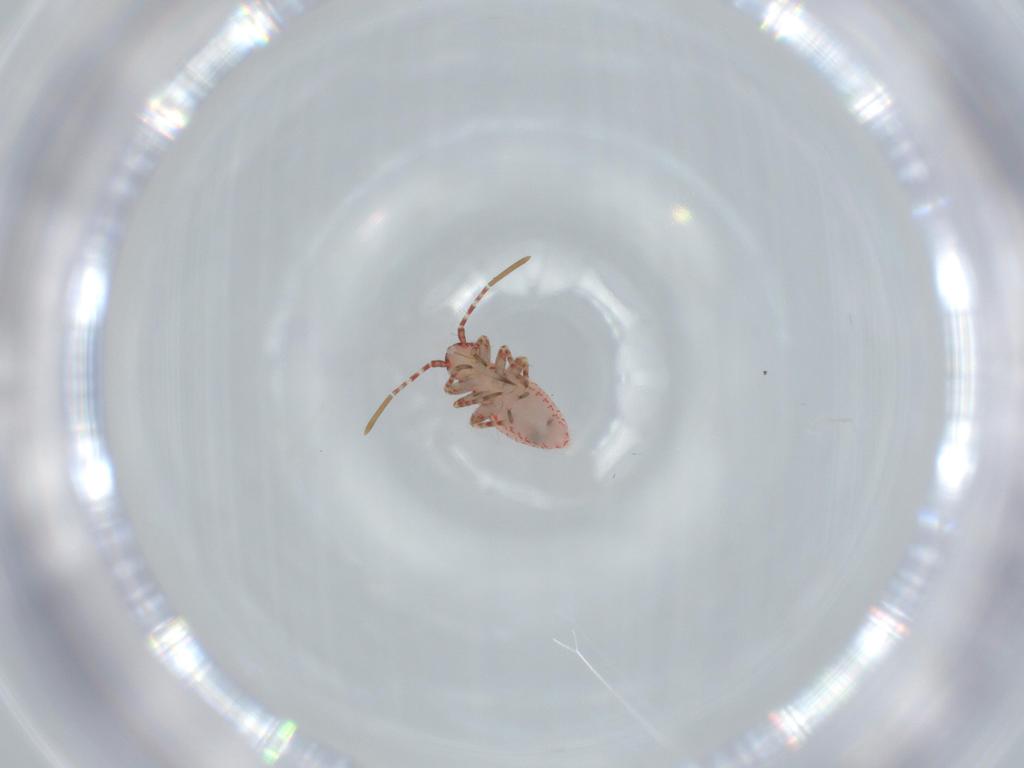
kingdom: Animalia
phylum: Arthropoda
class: Insecta
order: Hemiptera
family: Miridae
